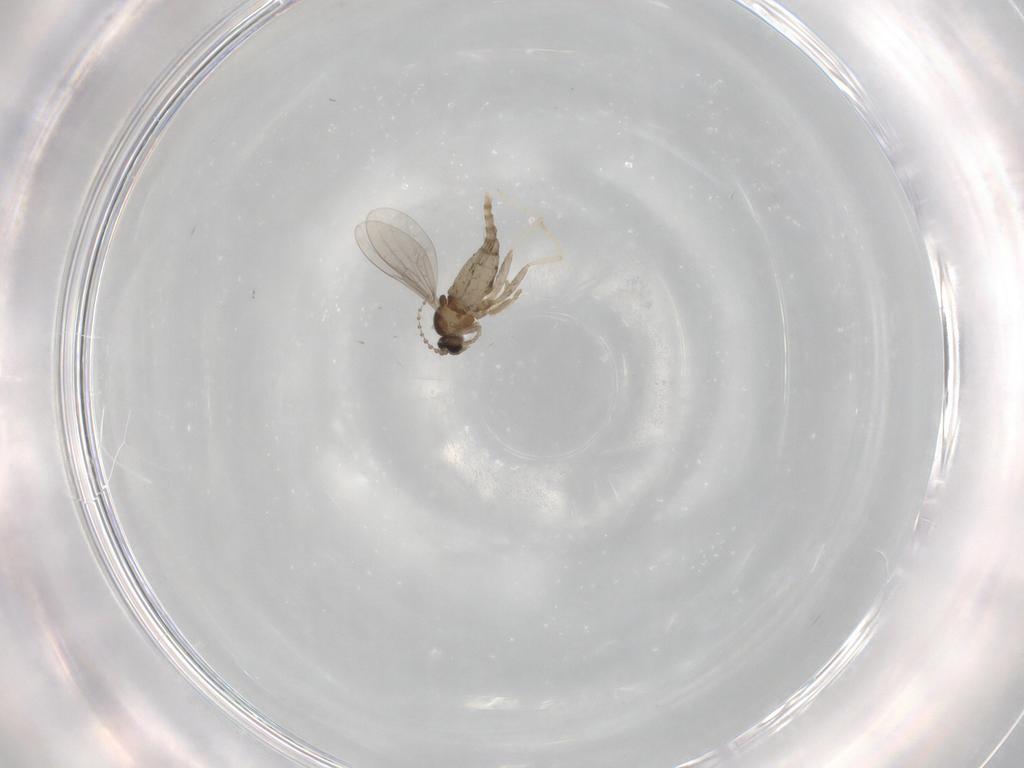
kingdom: Animalia
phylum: Arthropoda
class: Insecta
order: Diptera
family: Cecidomyiidae
